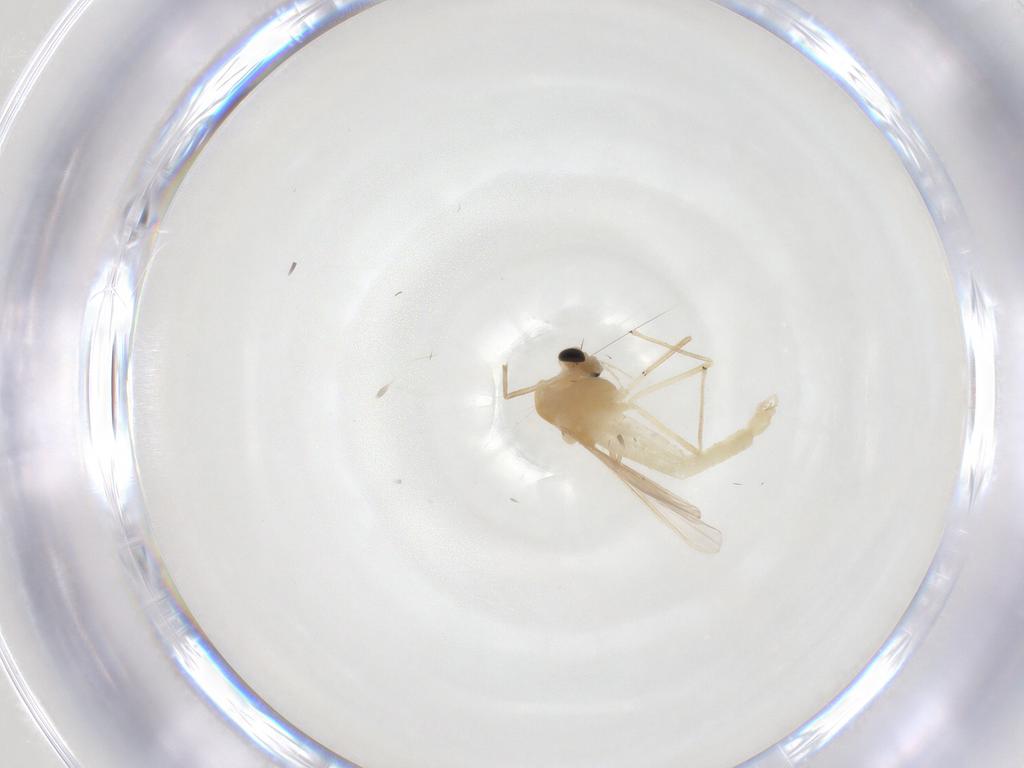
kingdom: Animalia
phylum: Arthropoda
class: Insecta
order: Diptera
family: Chironomidae
